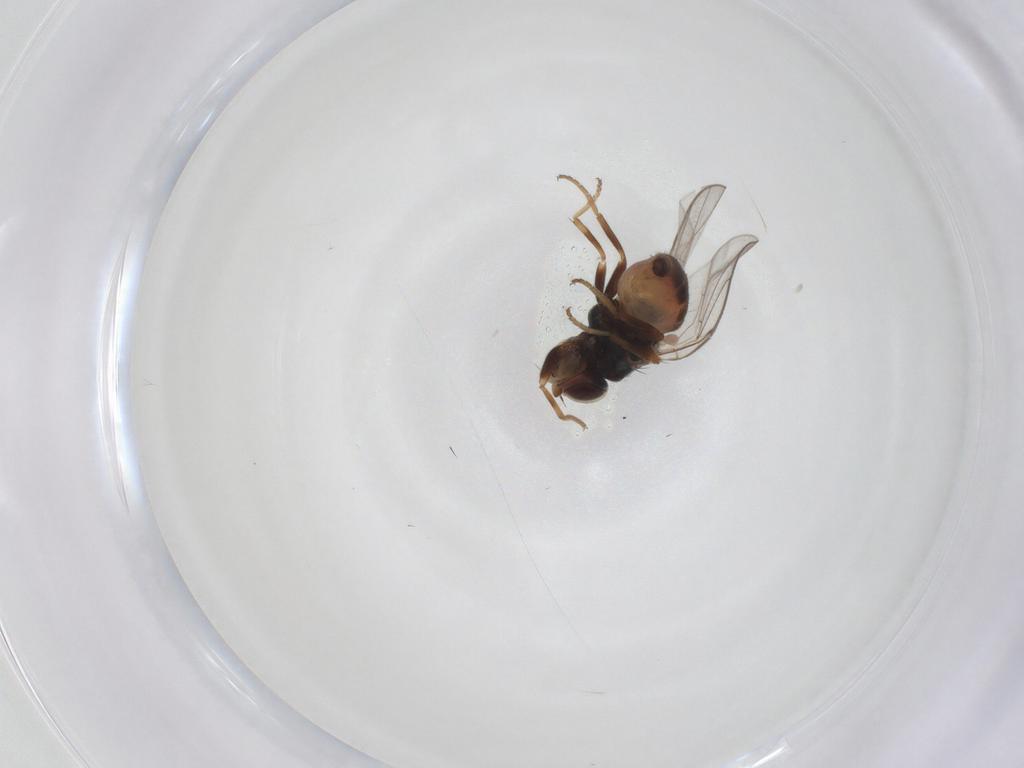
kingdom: Animalia
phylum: Arthropoda
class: Insecta
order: Diptera
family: Chloropidae
